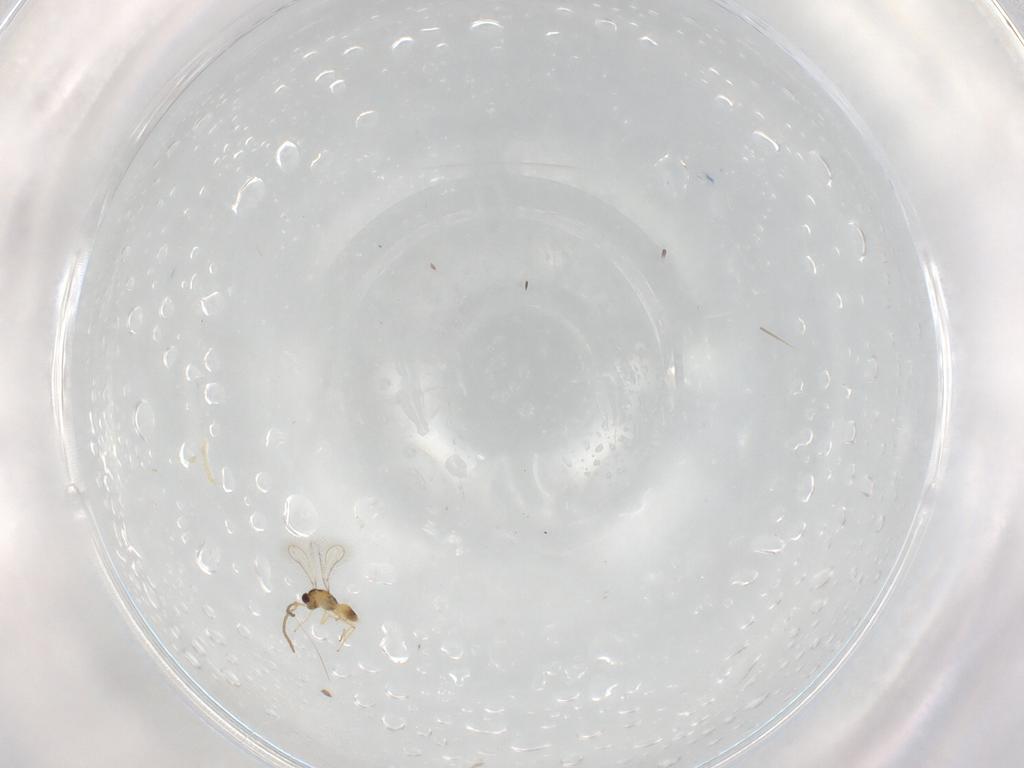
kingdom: Animalia
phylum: Arthropoda
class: Insecta
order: Hymenoptera
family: Mymaridae
